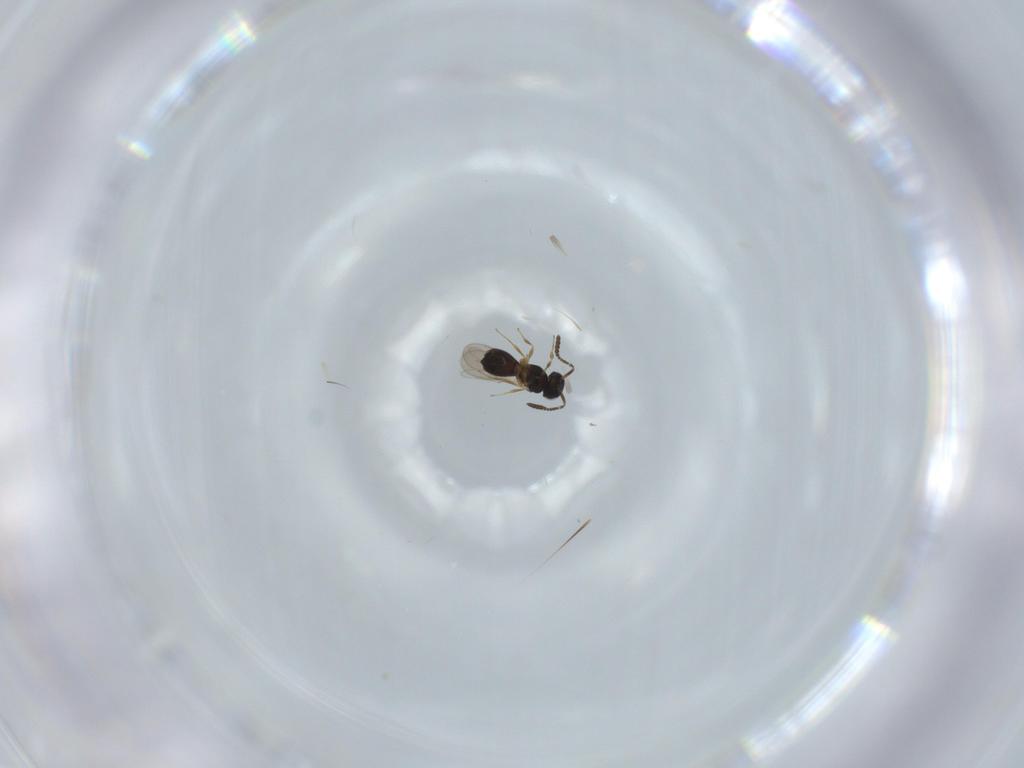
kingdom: Animalia
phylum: Arthropoda
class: Insecta
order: Hymenoptera
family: Scelionidae
